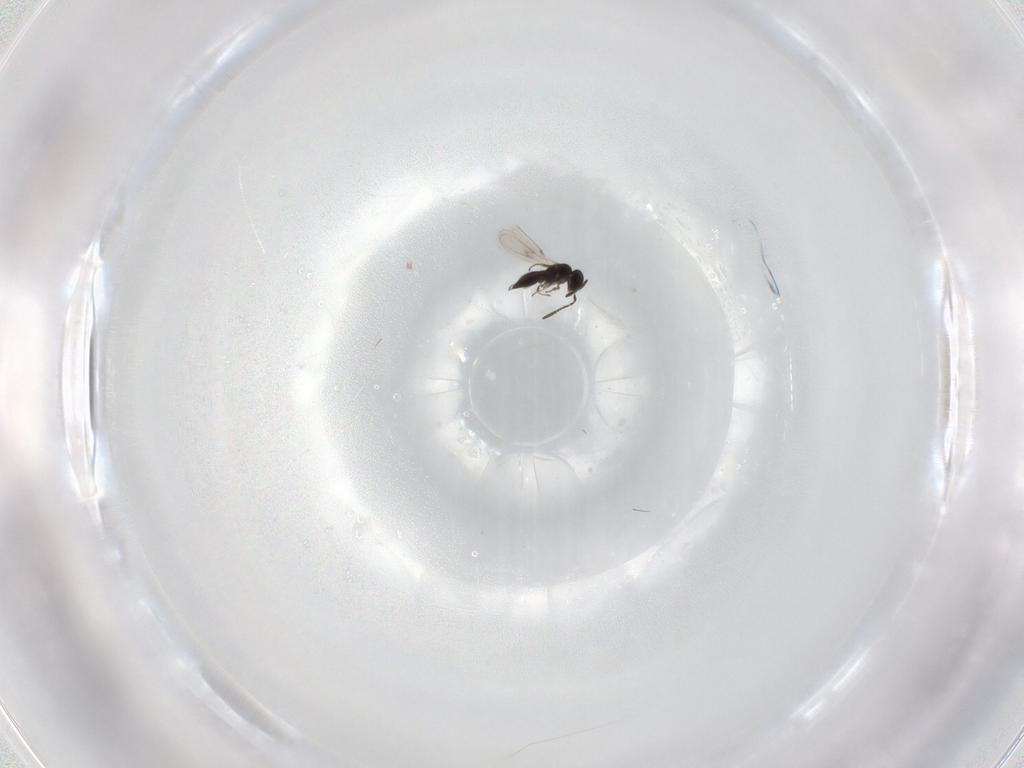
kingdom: Animalia
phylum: Arthropoda
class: Insecta
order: Hymenoptera
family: Scelionidae
